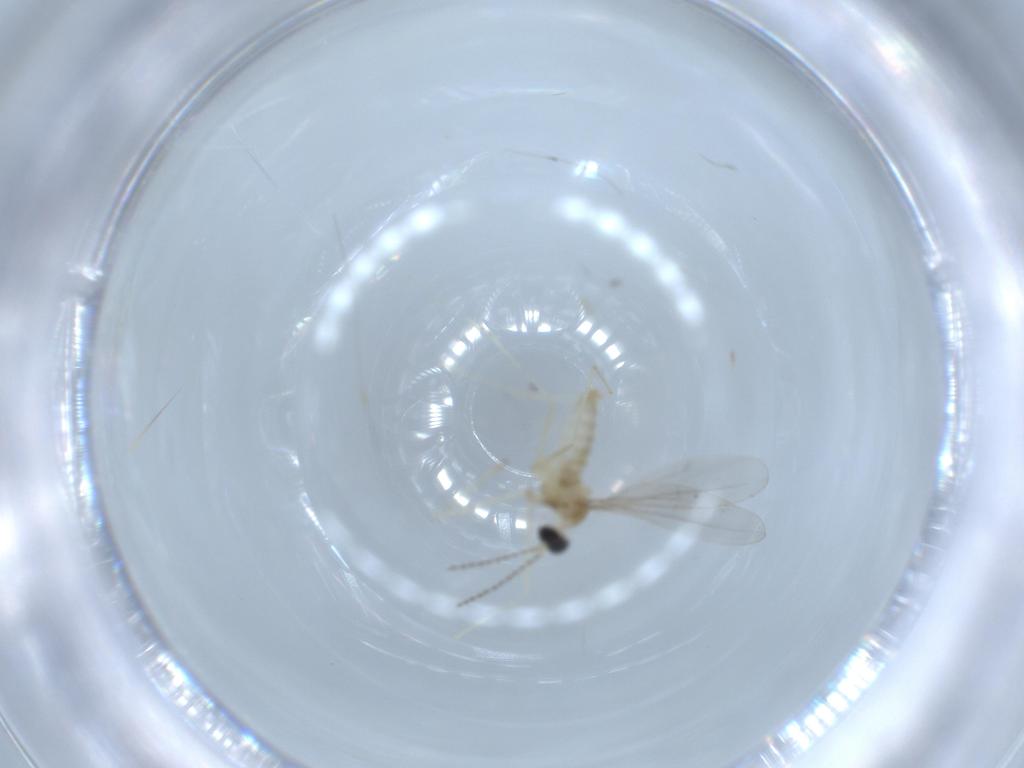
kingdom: Animalia
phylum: Arthropoda
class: Insecta
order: Diptera
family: Cecidomyiidae
